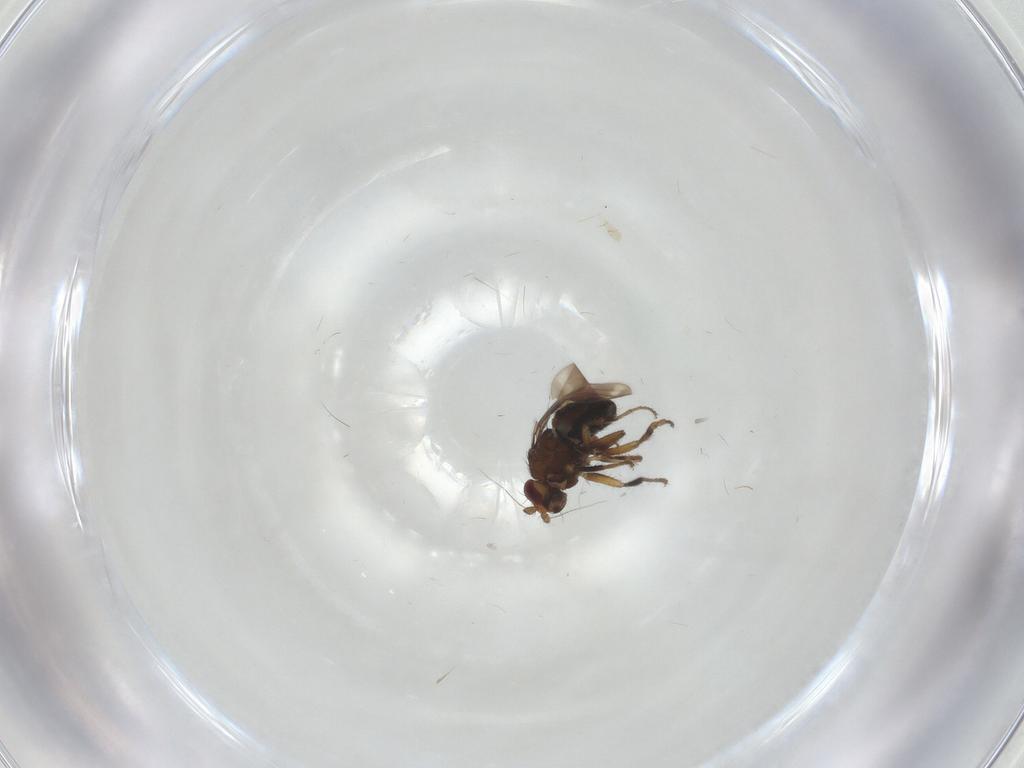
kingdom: Animalia
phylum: Arthropoda
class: Insecta
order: Diptera
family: Sphaeroceridae
